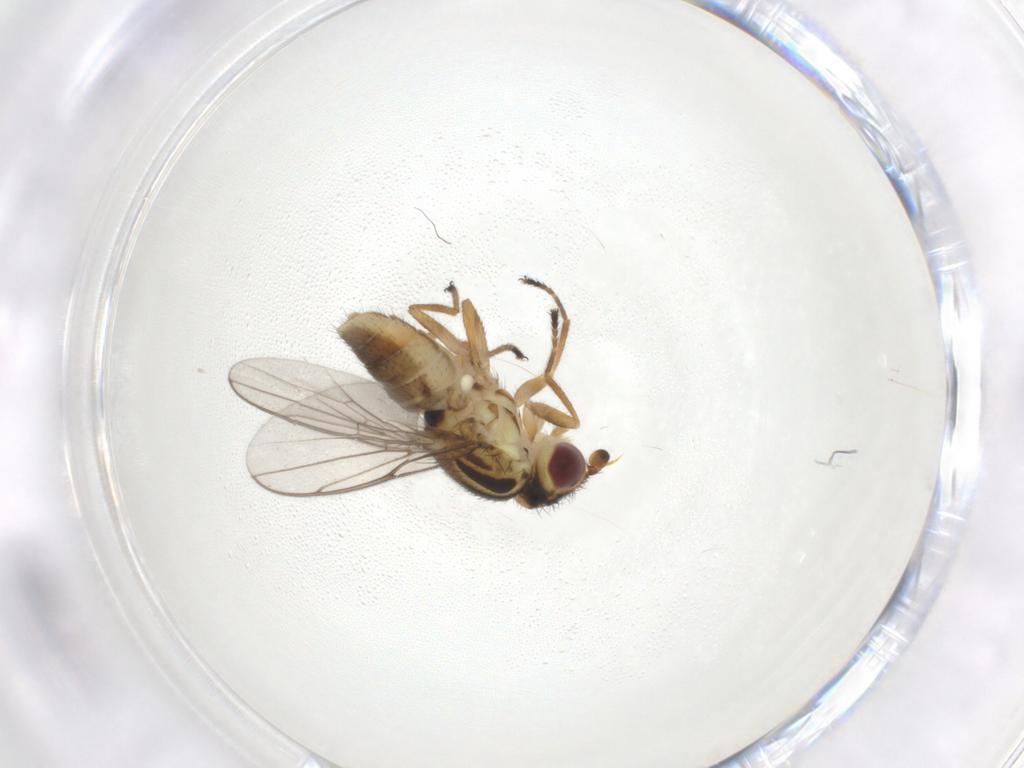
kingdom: Animalia
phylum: Arthropoda
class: Insecta
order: Diptera
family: Chloropidae
